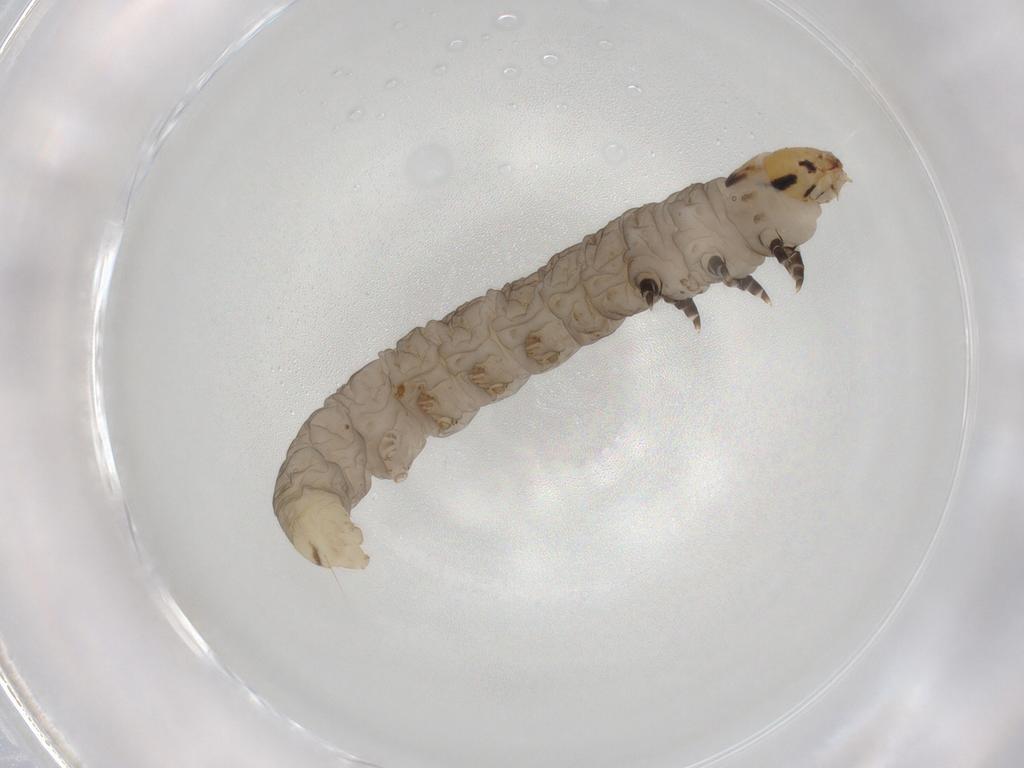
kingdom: Animalia
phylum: Arthropoda
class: Insecta
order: Lepidoptera
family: Tortricidae
